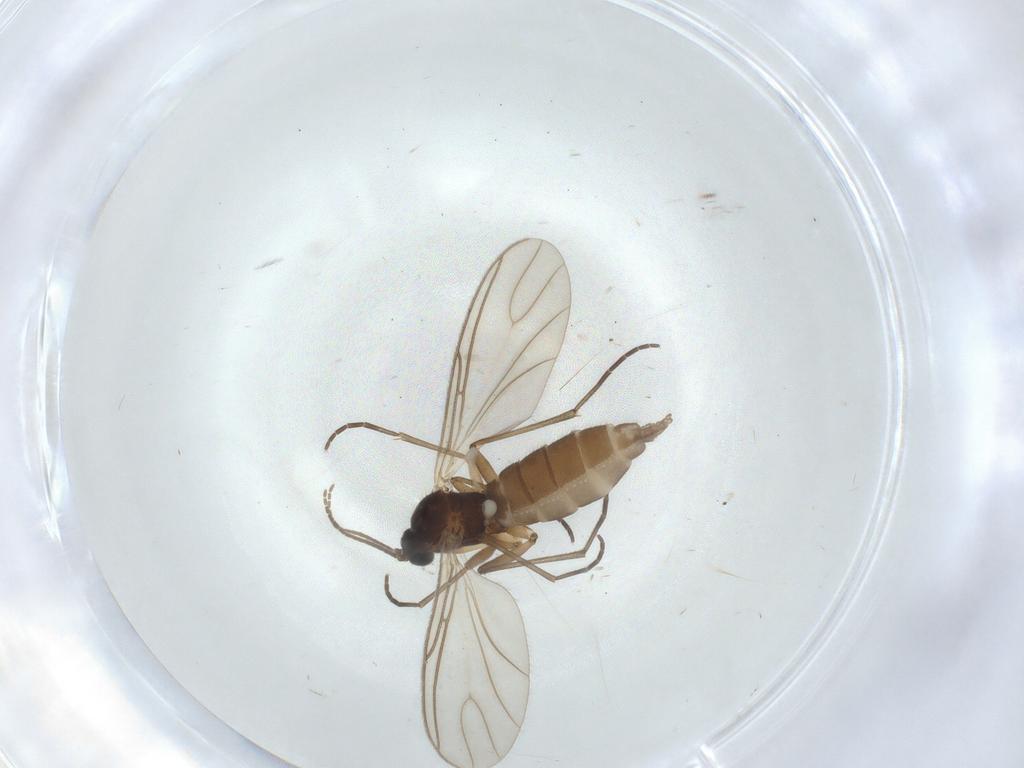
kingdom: Animalia
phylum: Arthropoda
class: Insecta
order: Diptera
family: Sciaridae
